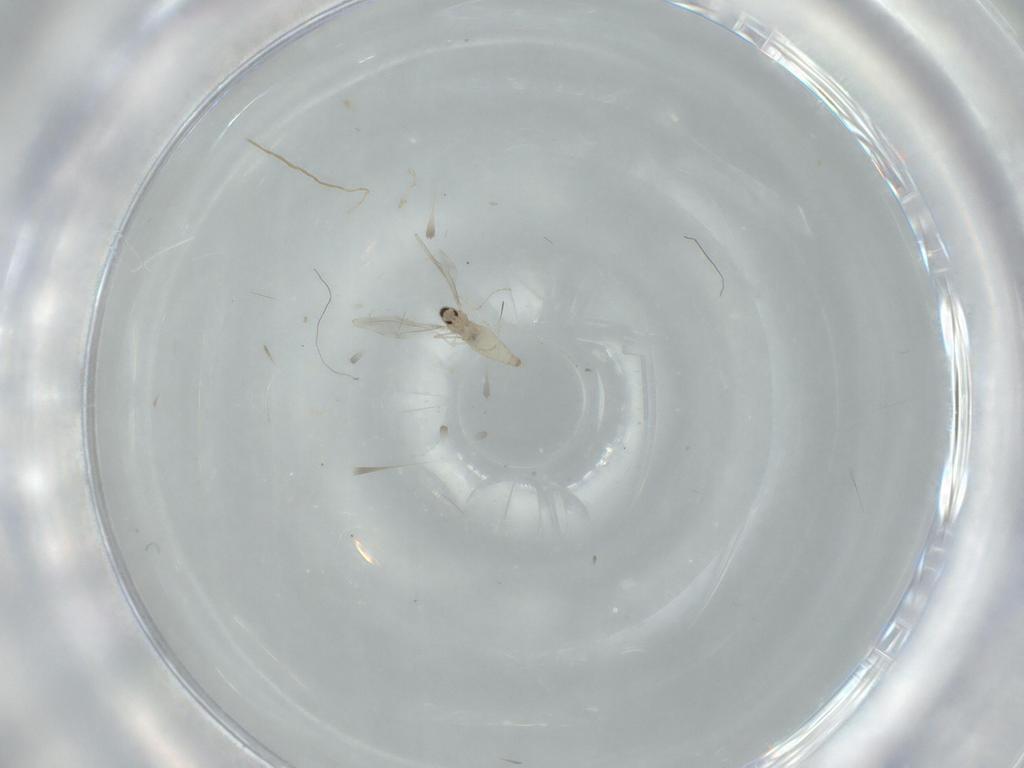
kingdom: Animalia
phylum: Arthropoda
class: Insecta
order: Diptera
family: Cecidomyiidae
